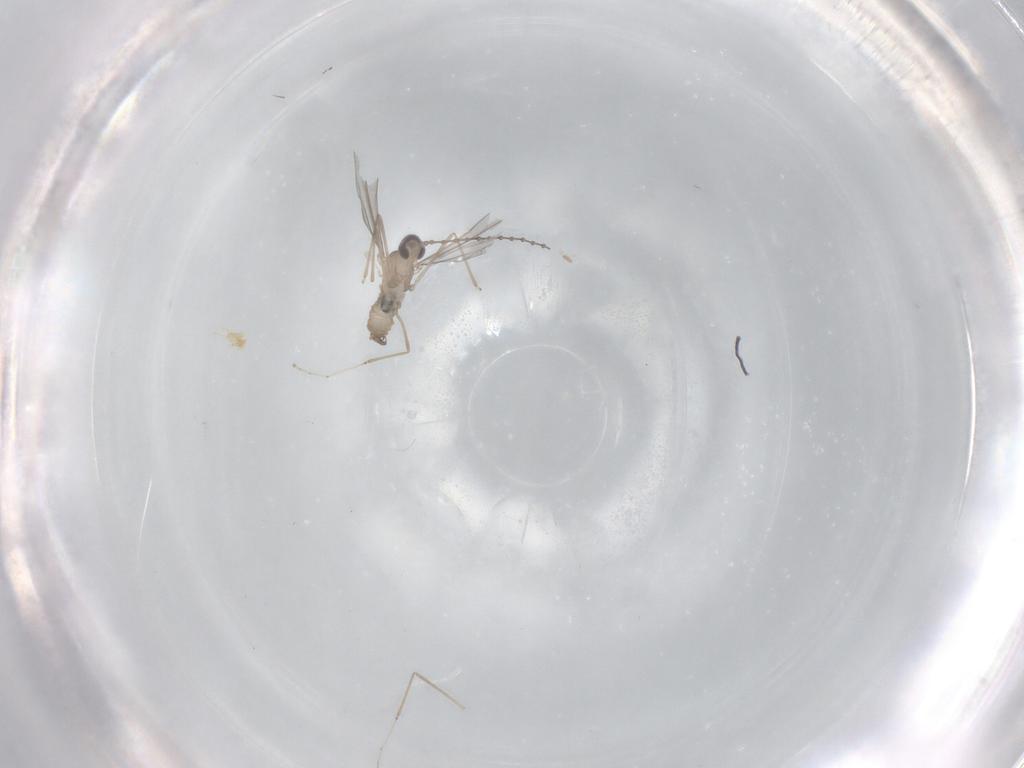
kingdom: Animalia
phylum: Arthropoda
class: Insecta
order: Diptera
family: Cecidomyiidae
